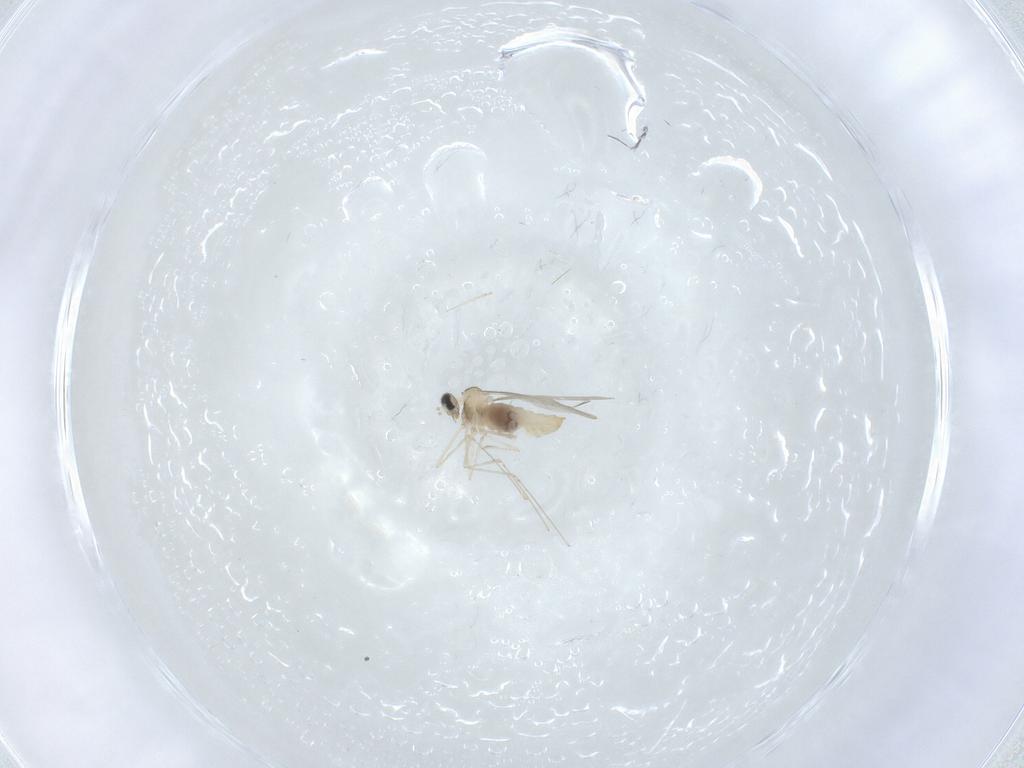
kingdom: Animalia
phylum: Arthropoda
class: Insecta
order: Diptera
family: Cecidomyiidae
